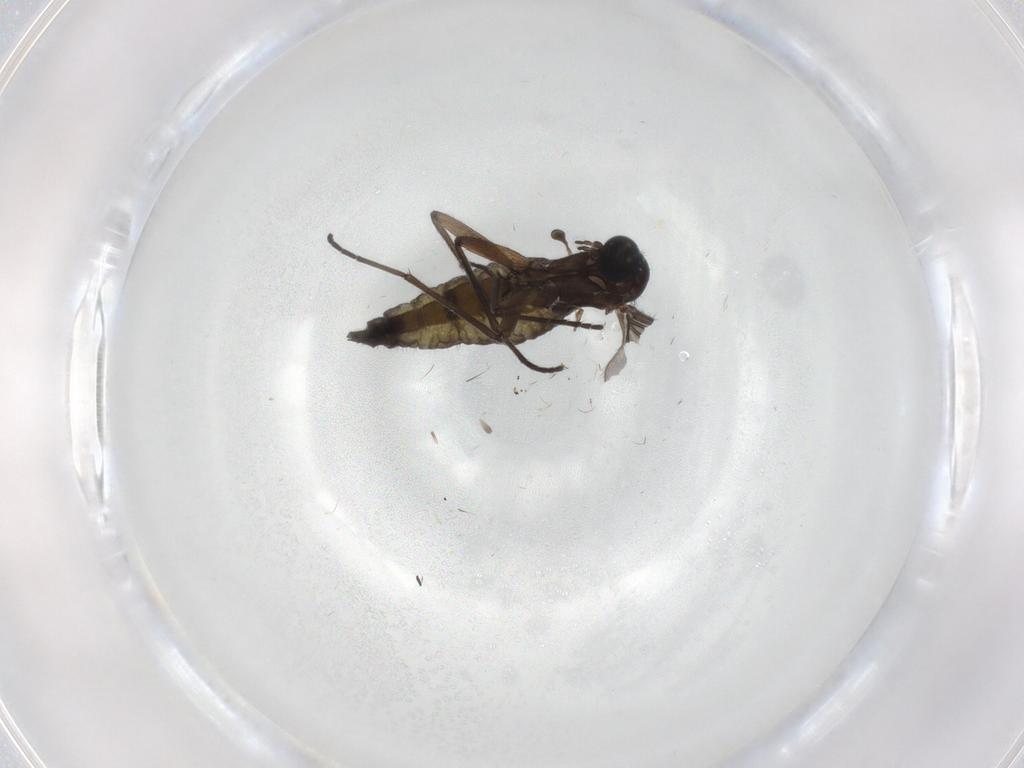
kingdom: Animalia
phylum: Arthropoda
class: Insecta
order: Diptera
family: Sciaridae
